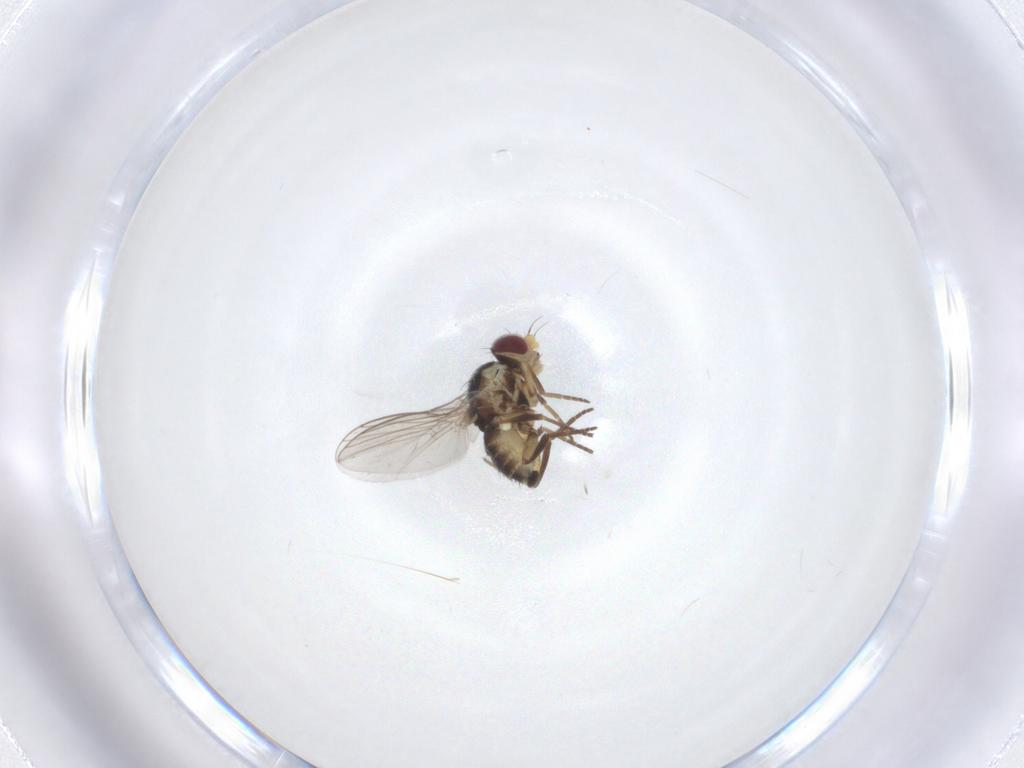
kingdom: Animalia
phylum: Arthropoda
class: Insecta
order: Diptera
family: Agromyzidae
